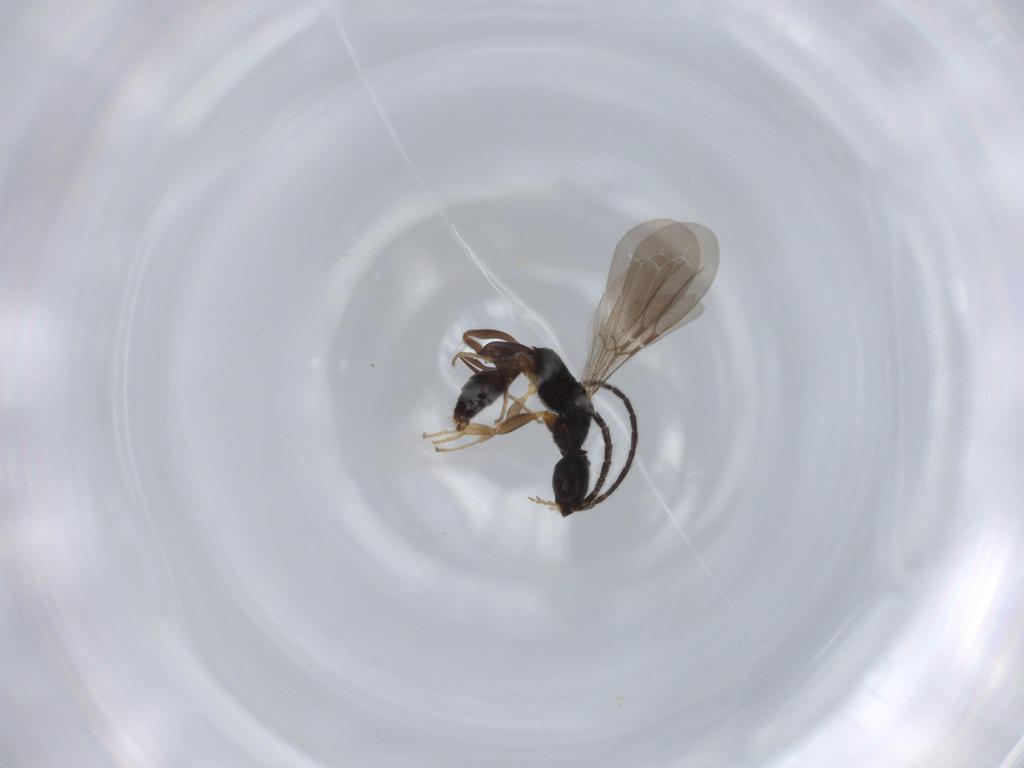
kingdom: Animalia
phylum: Arthropoda
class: Insecta
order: Hymenoptera
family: Bethylidae
